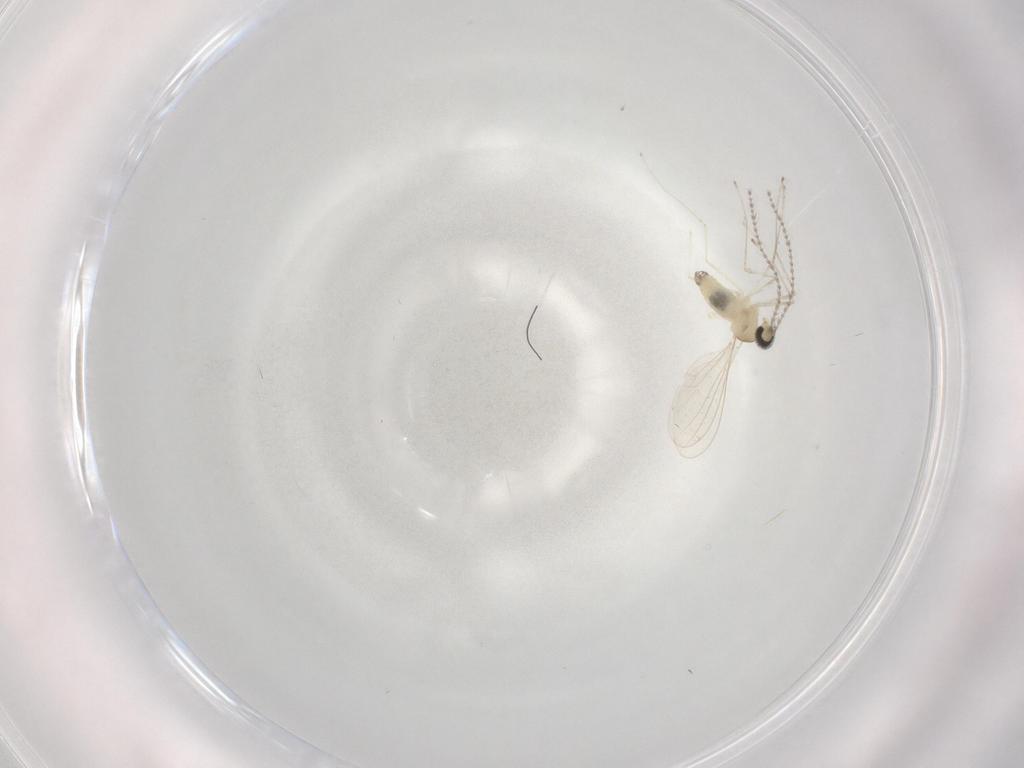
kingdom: Animalia
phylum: Arthropoda
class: Insecta
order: Diptera
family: Cecidomyiidae
